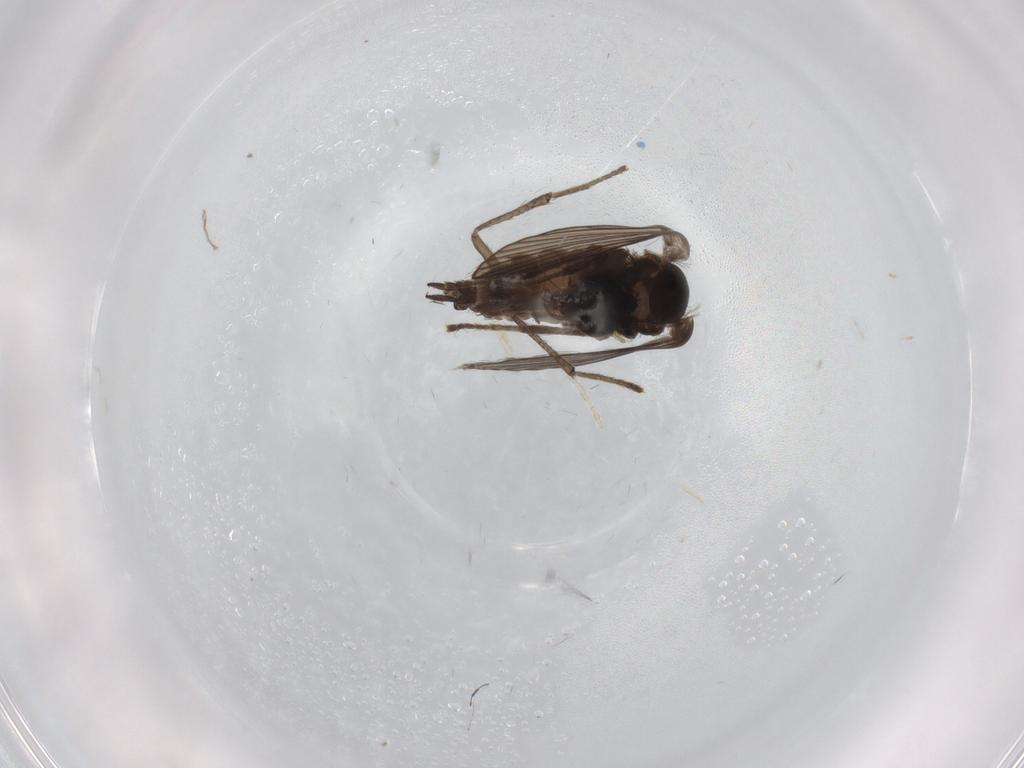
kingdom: Animalia
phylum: Arthropoda
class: Insecta
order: Diptera
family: Psychodidae
